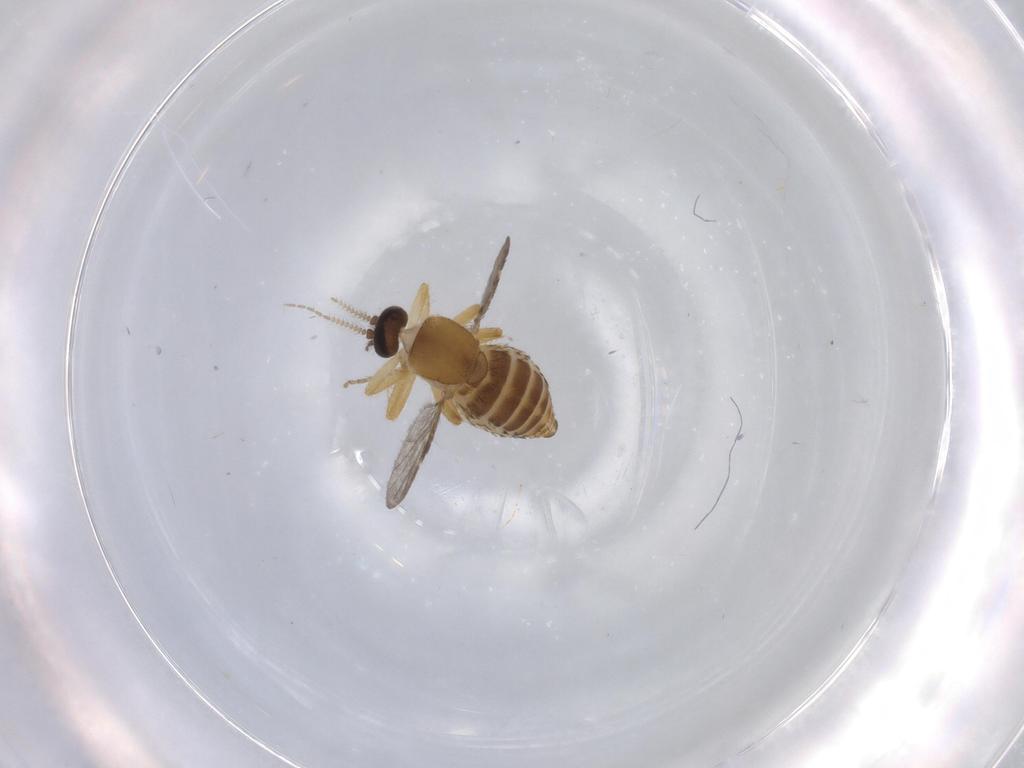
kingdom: Animalia
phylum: Arthropoda
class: Insecta
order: Diptera
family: Ceratopogonidae
